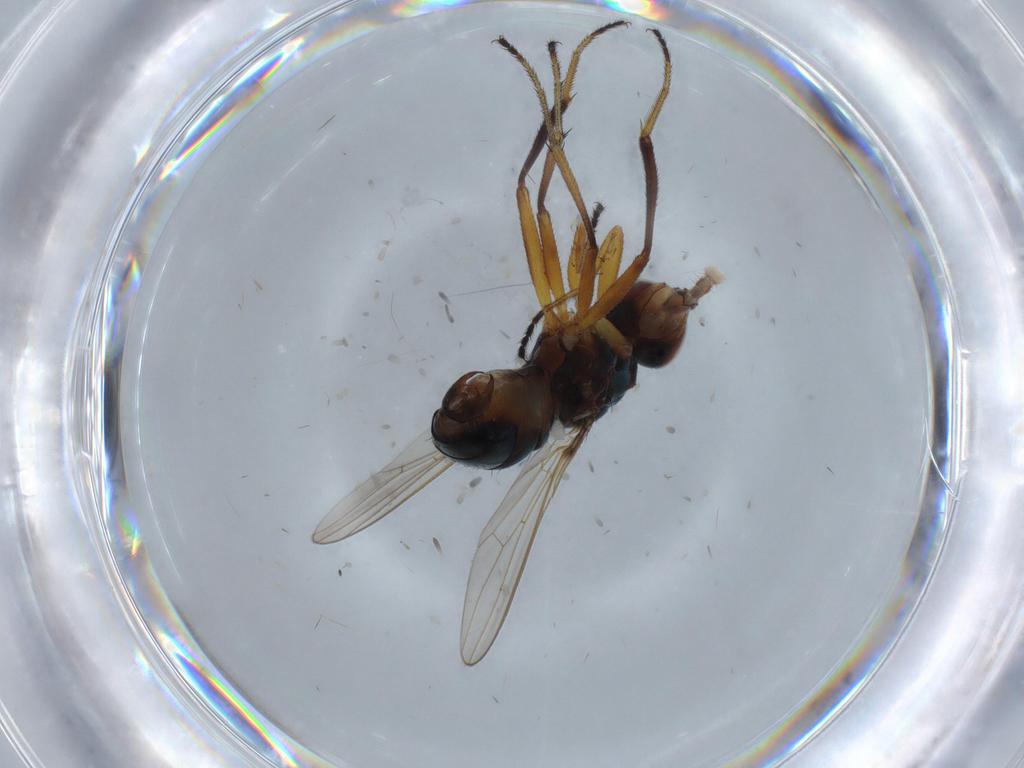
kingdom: Animalia
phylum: Arthropoda
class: Insecta
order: Diptera
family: Sepsidae
